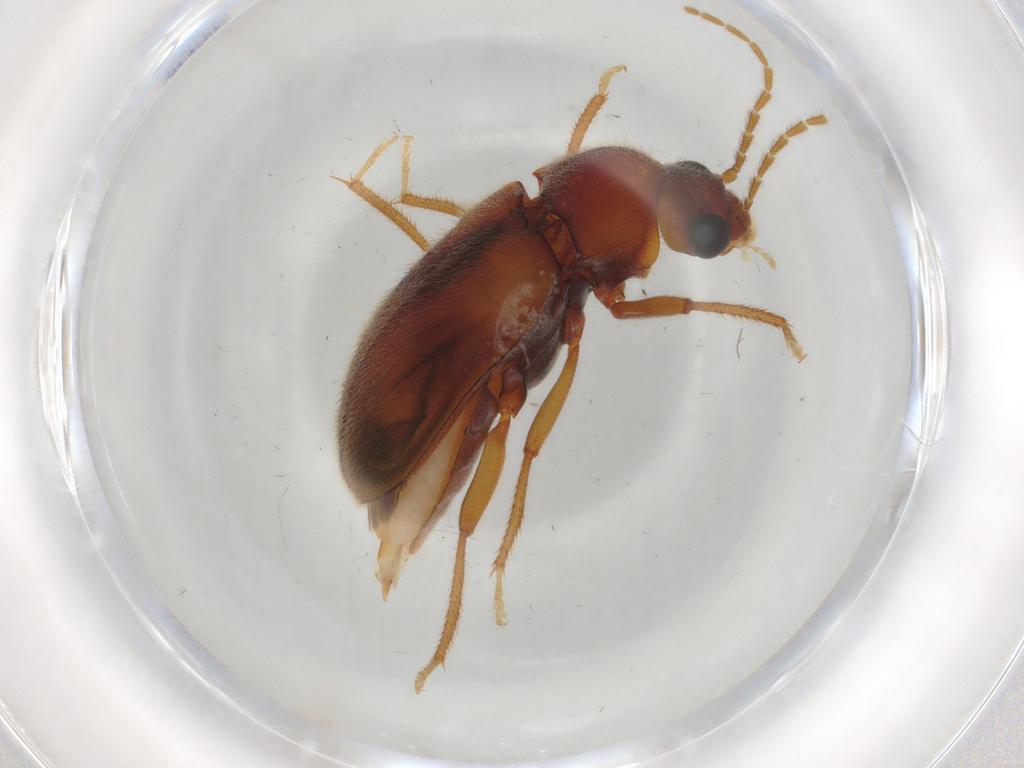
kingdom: Animalia
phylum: Arthropoda
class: Insecta
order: Coleoptera
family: Ptilodactylidae
